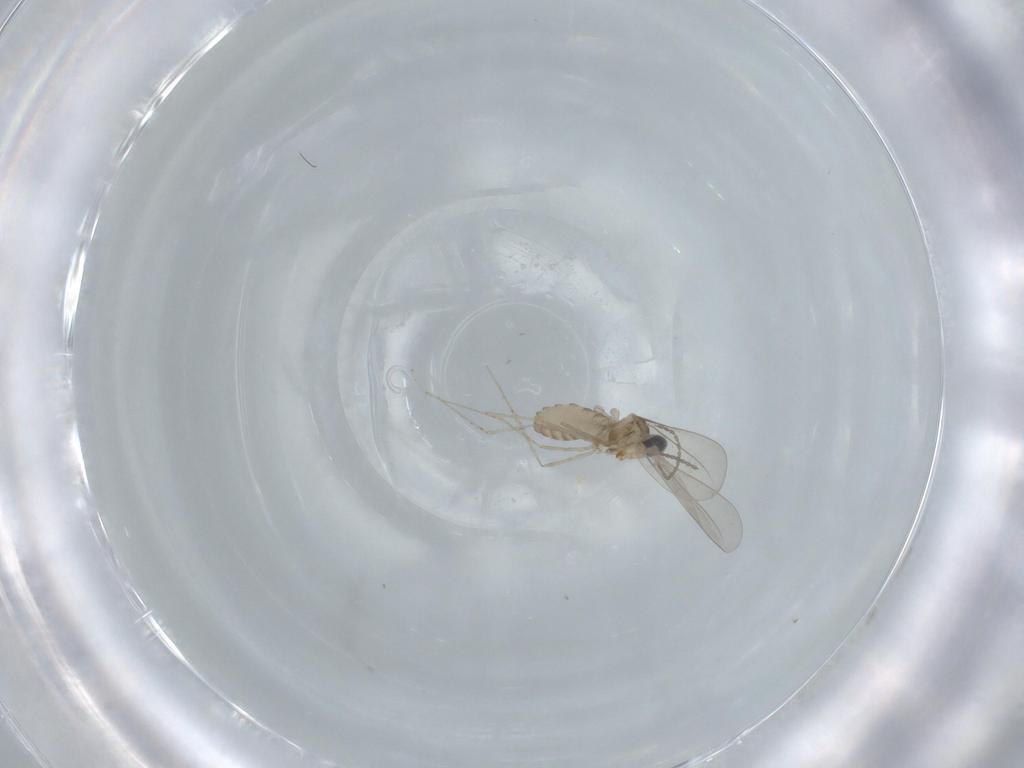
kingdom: Animalia
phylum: Arthropoda
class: Insecta
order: Diptera
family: Cecidomyiidae
